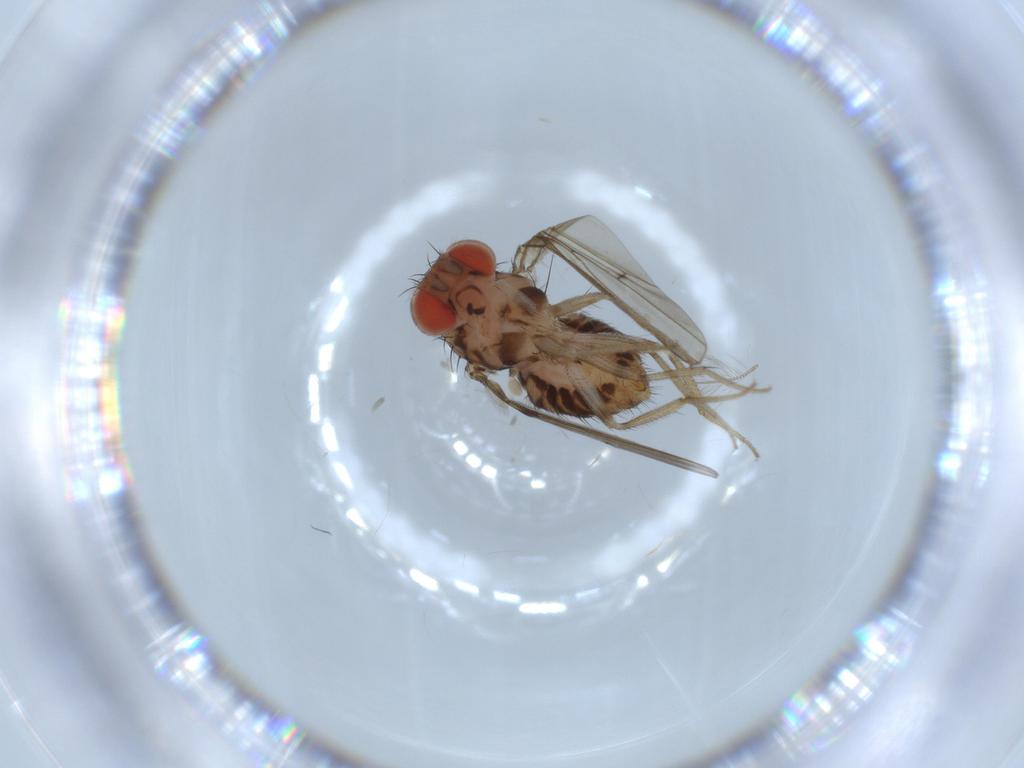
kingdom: Animalia
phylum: Arthropoda
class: Insecta
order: Diptera
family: Drosophilidae
